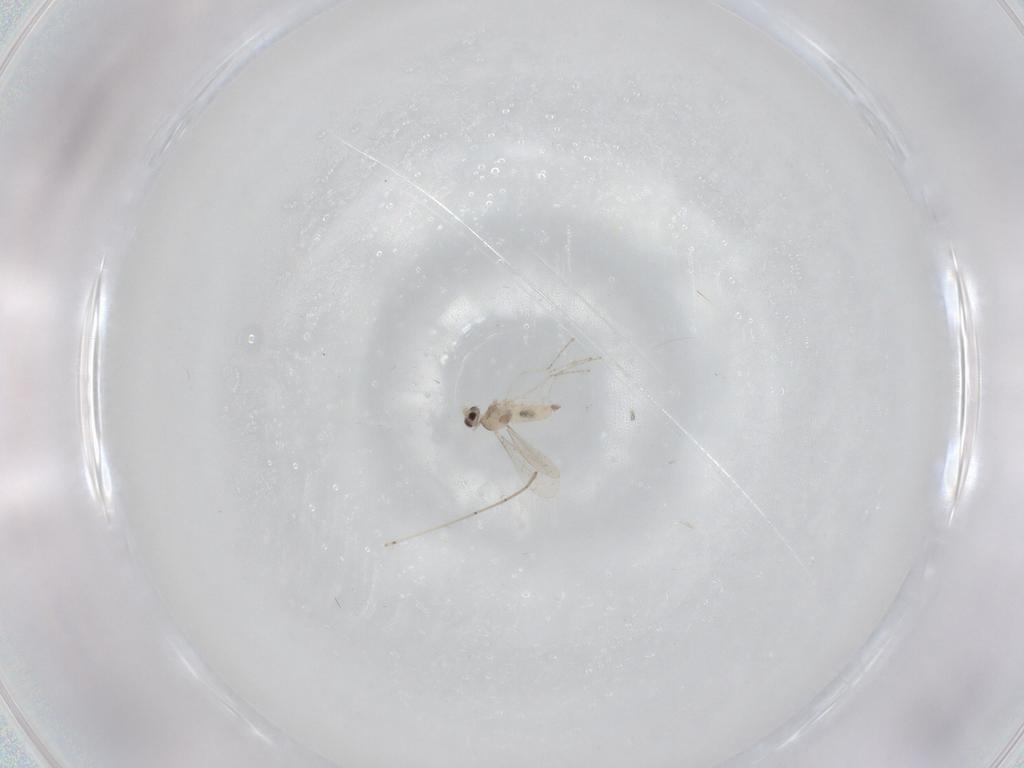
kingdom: Animalia
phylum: Arthropoda
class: Insecta
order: Diptera
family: Cecidomyiidae
